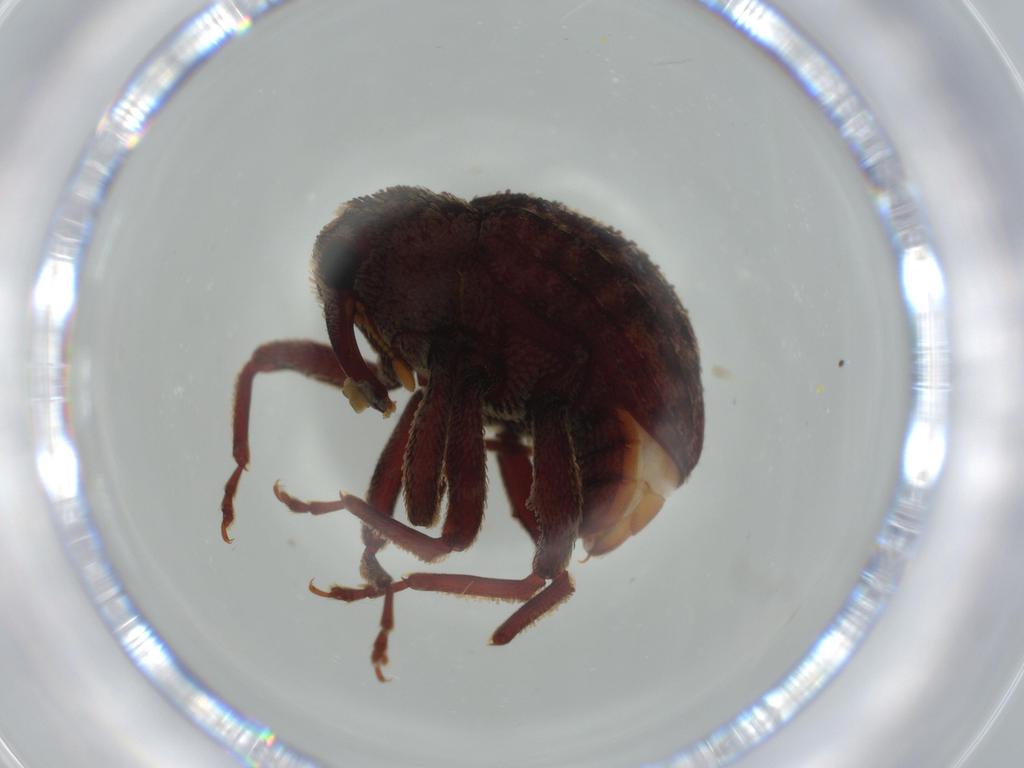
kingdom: Animalia
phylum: Arthropoda
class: Insecta
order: Coleoptera
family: Curculionidae
